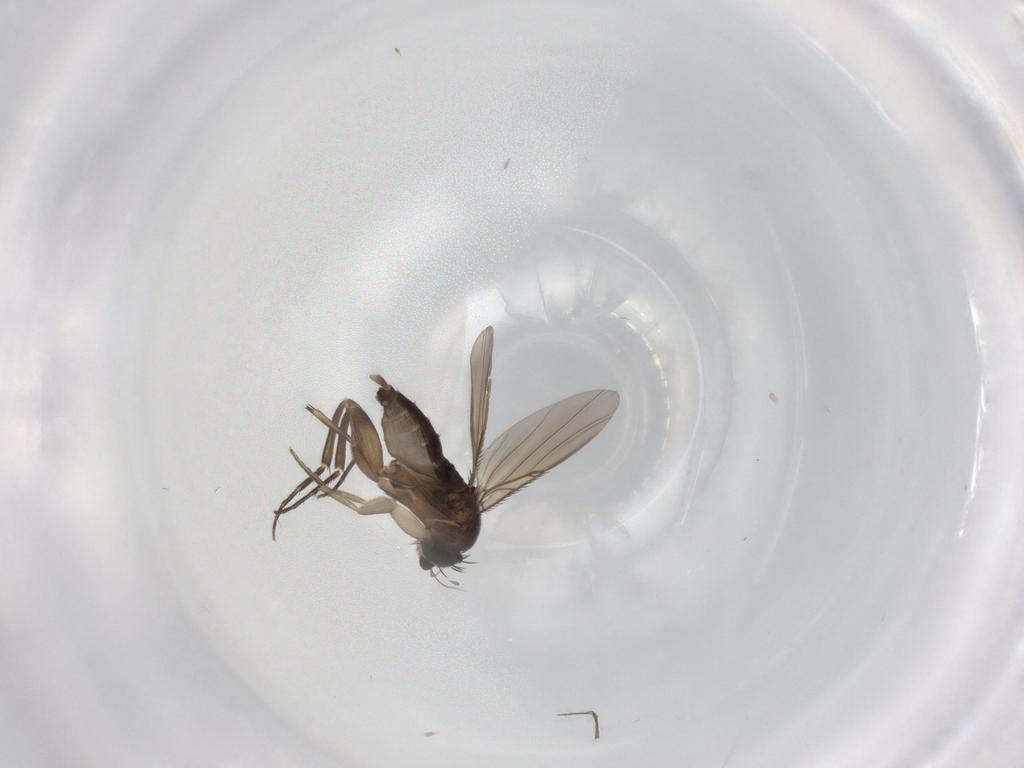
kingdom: Animalia
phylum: Arthropoda
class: Insecta
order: Diptera
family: Phoridae
